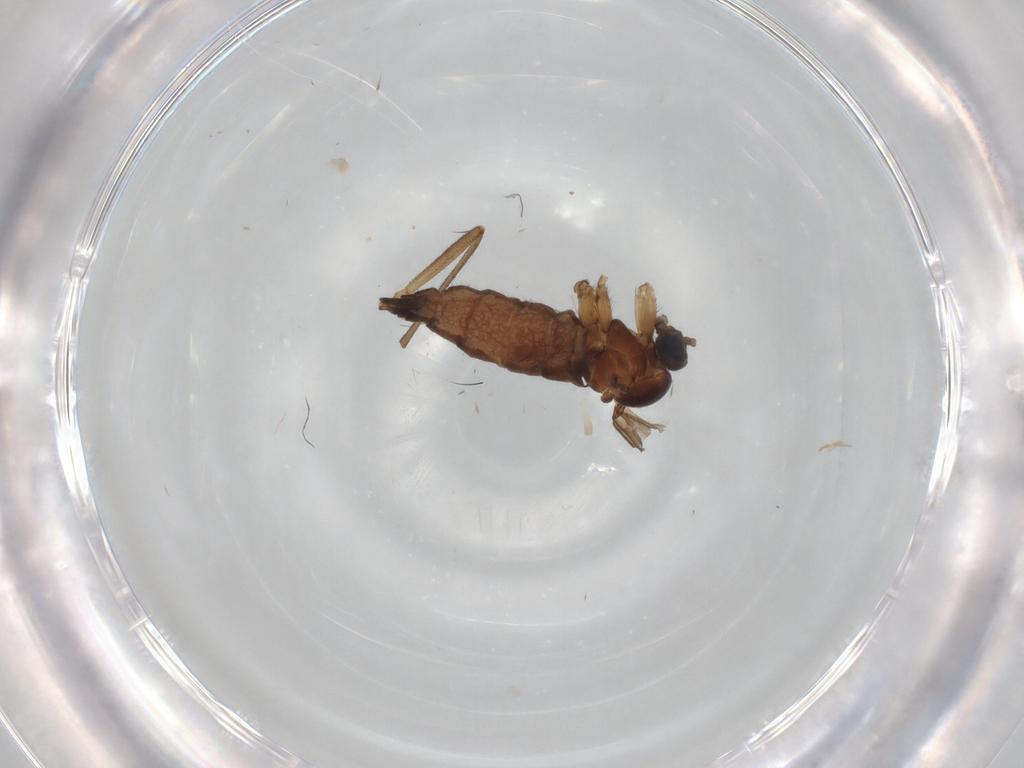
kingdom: Animalia
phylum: Arthropoda
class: Insecta
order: Diptera
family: Sciaridae
